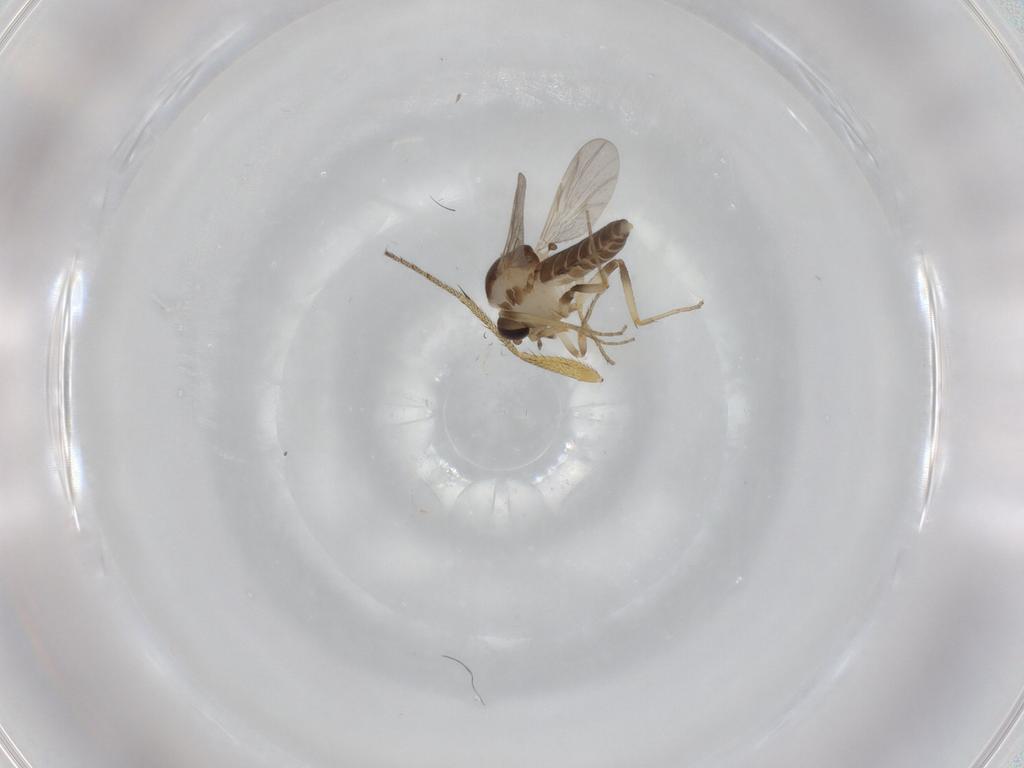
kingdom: Animalia
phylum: Arthropoda
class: Insecta
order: Diptera
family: Ceratopogonidae
